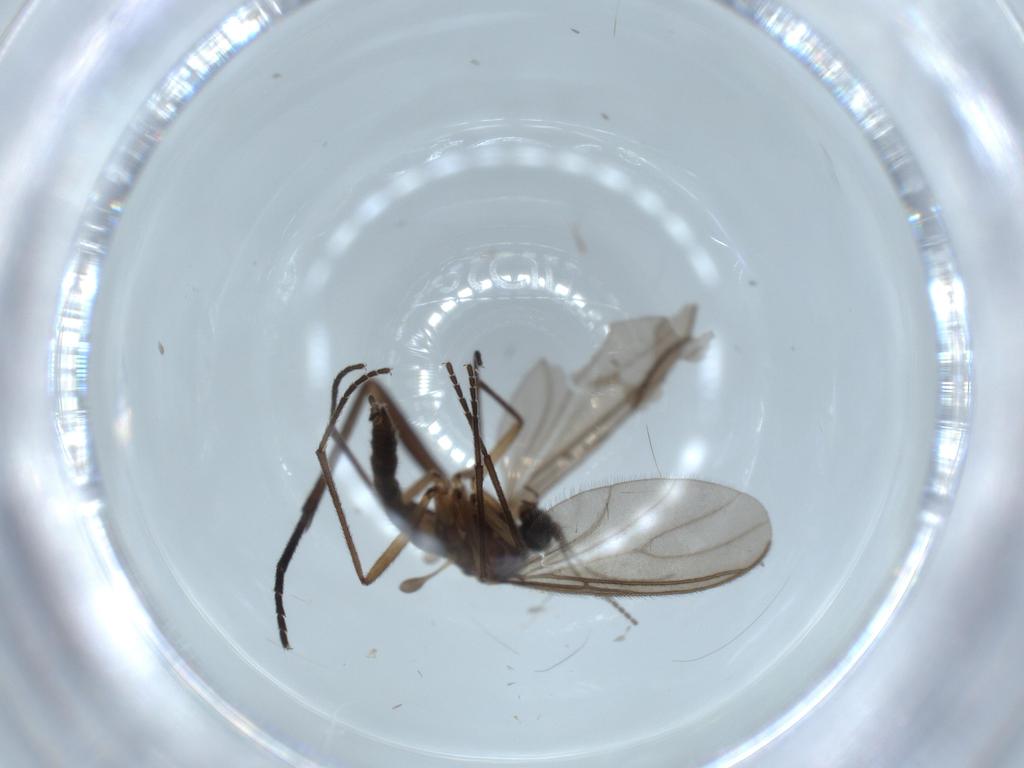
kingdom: Animalia
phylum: Arthropoda
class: Insecta
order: Diptera
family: Sciaridae
